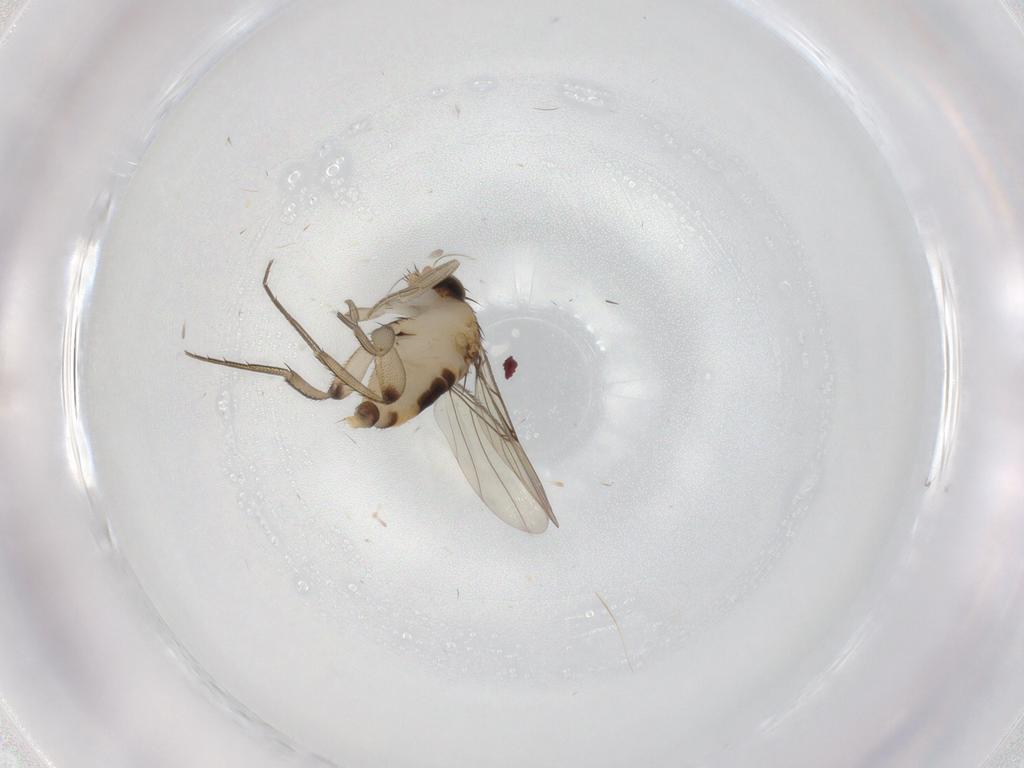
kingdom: Animalia
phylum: Arthropoda
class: Insecta
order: Diptera
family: Phoridae
